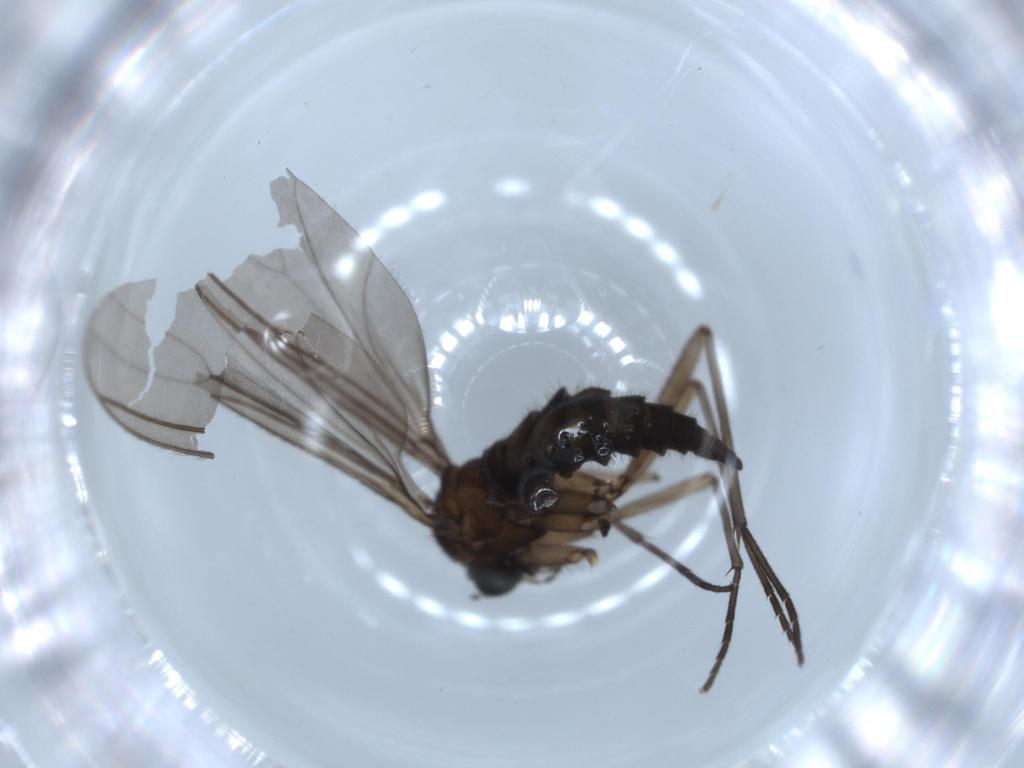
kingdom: Animalia
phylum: Arthropoda
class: Insecta
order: Diptera
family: Sciaridae
